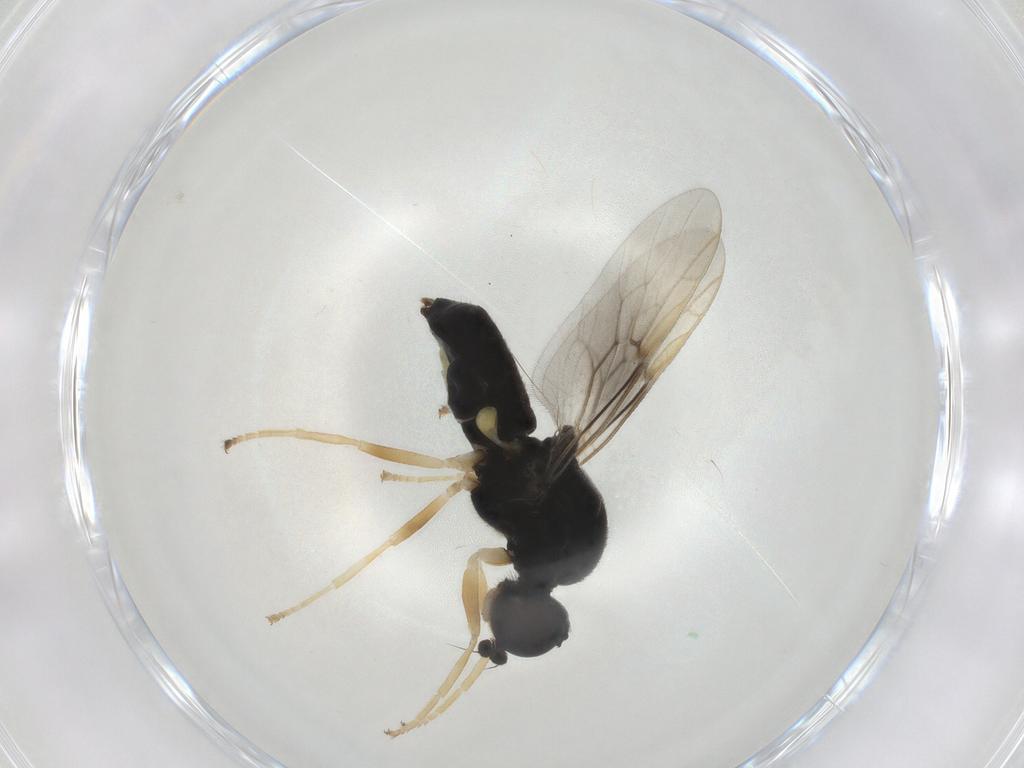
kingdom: Animalia
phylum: Arthropoda
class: Insecta
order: Diptera
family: Stratiomyidae
